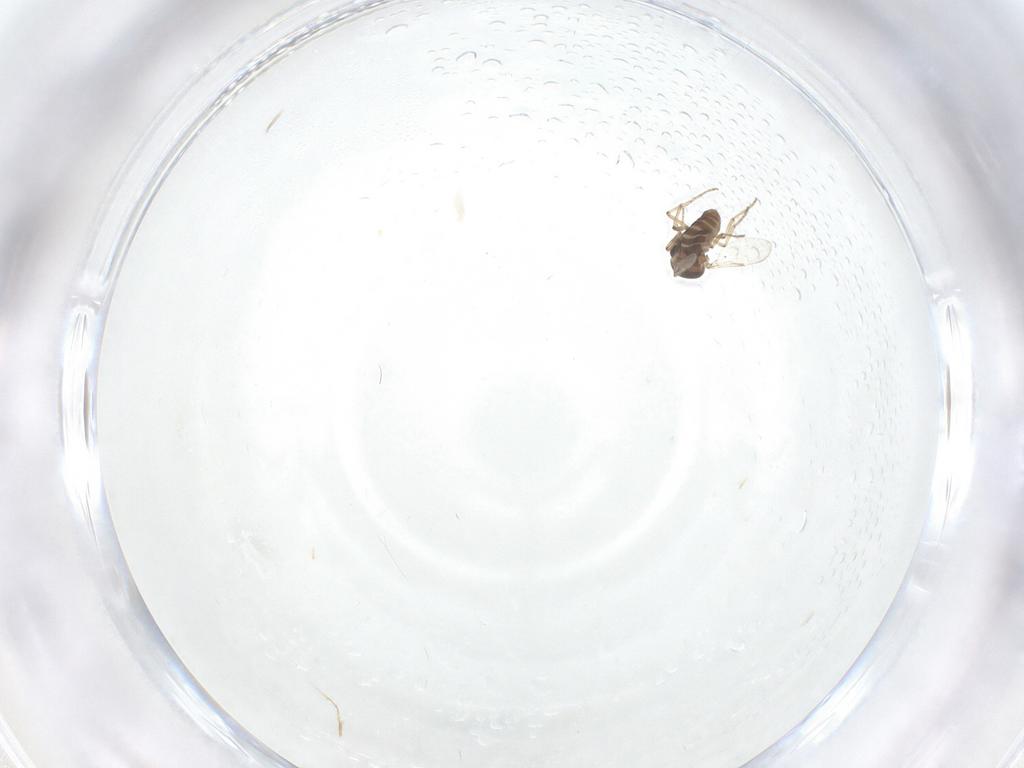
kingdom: Animalia
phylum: Arthropoda
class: Insecta
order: Diptera
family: Ceratopogonidae
